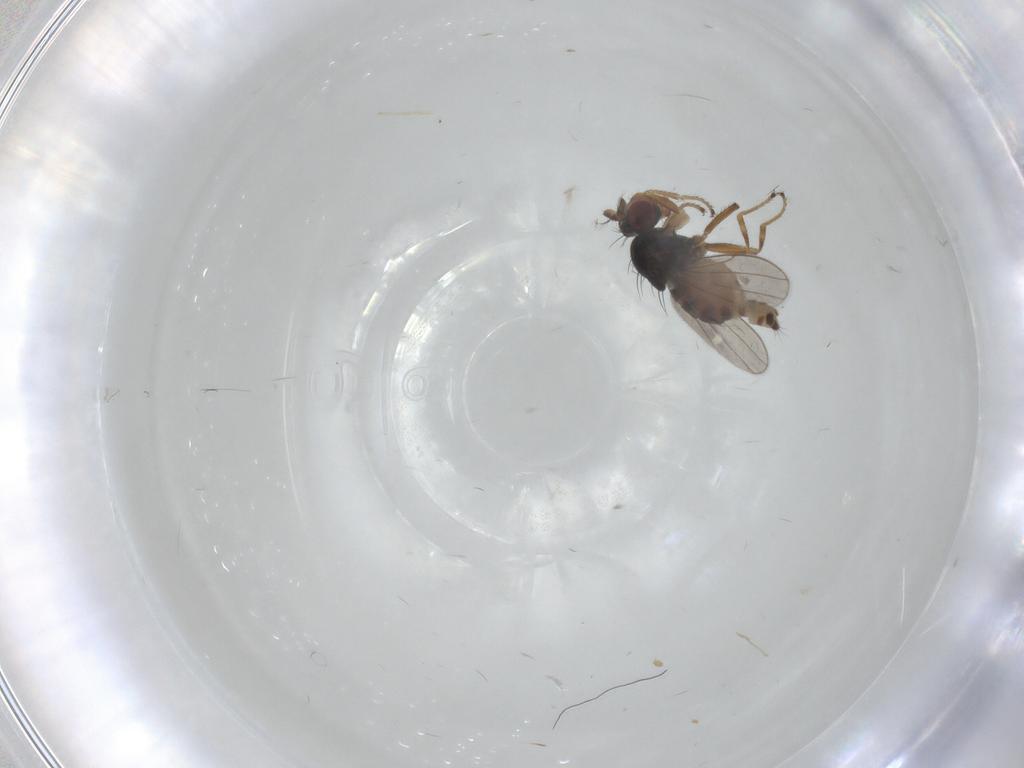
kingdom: Animalia
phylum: Arthropoda
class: Insecta
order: Diptera
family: Ephydridae
